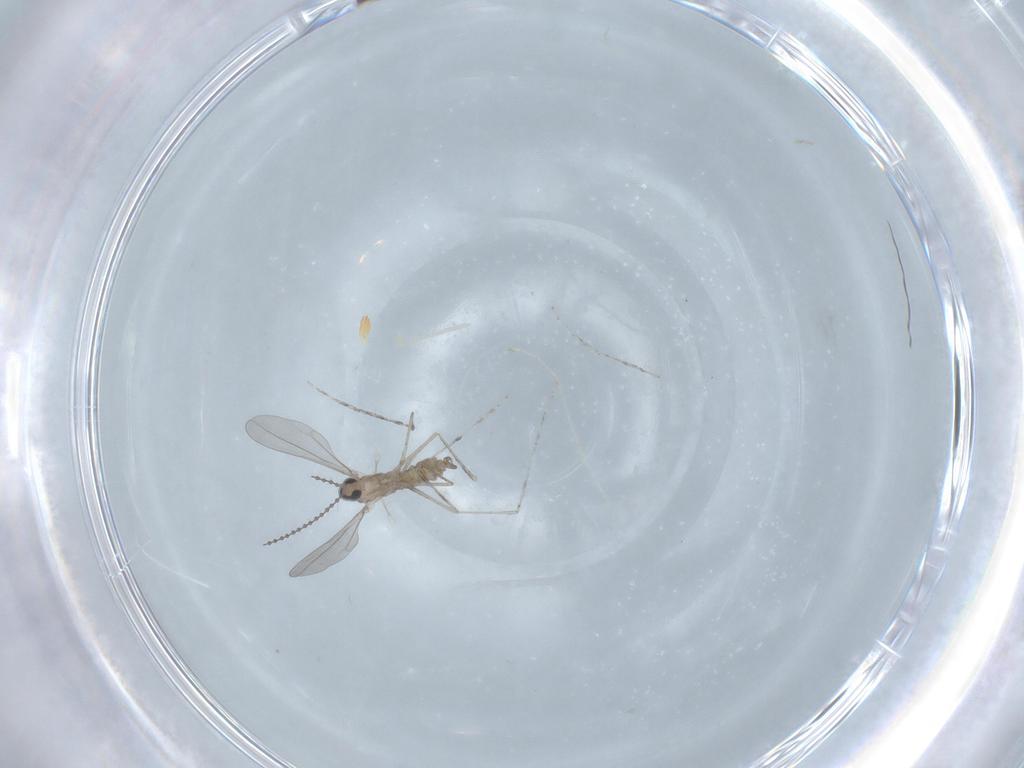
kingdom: Animalia
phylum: Arthropoda
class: Insecta
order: Diptera
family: Cecidomyiidae
